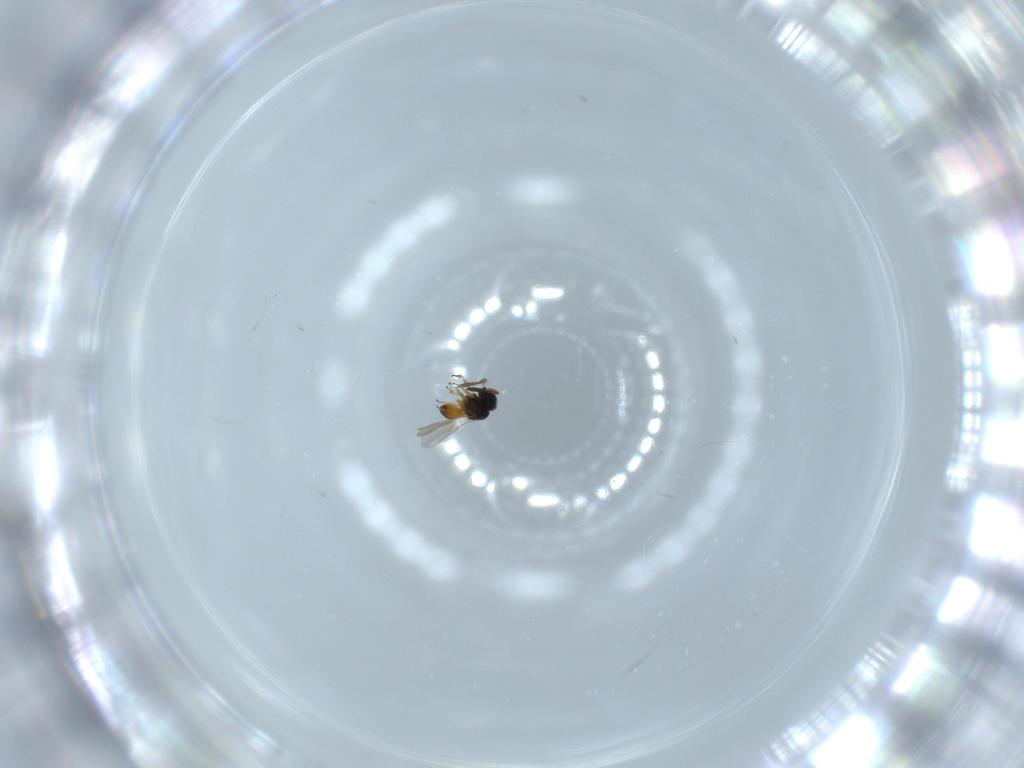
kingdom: Animalia
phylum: Arthropoda
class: Insecta
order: Hymenoptera
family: Scelionidae
